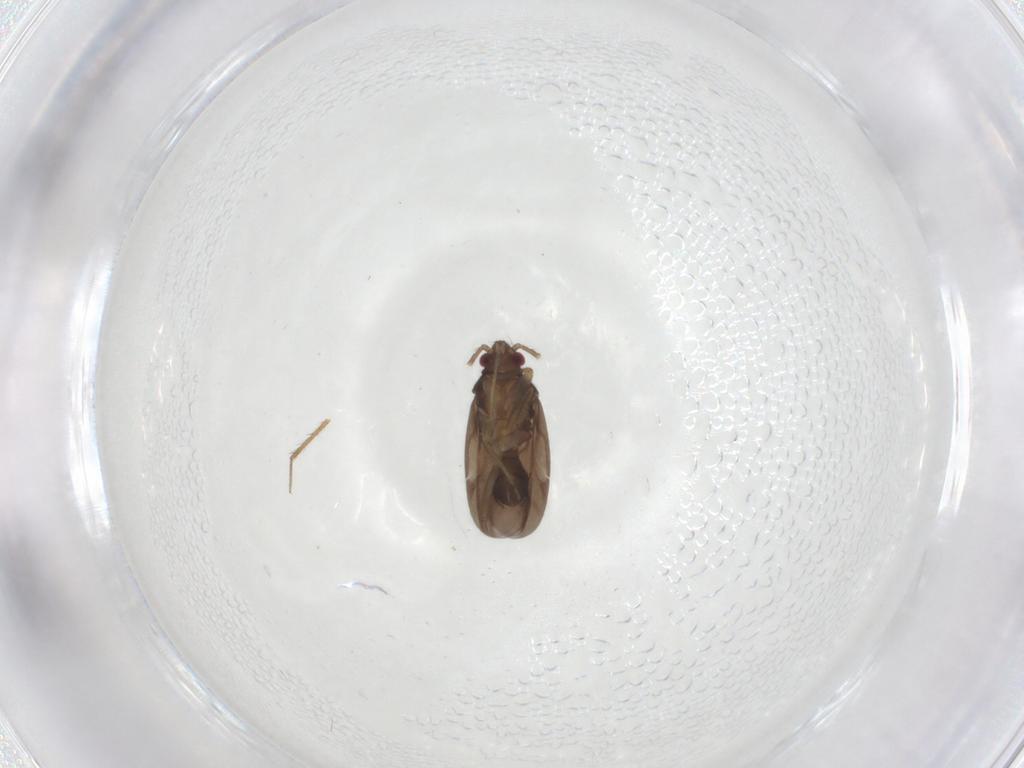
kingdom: Animalia
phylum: Arthropoda
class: Insecta
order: Hemiptera
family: Ceratocombidae
